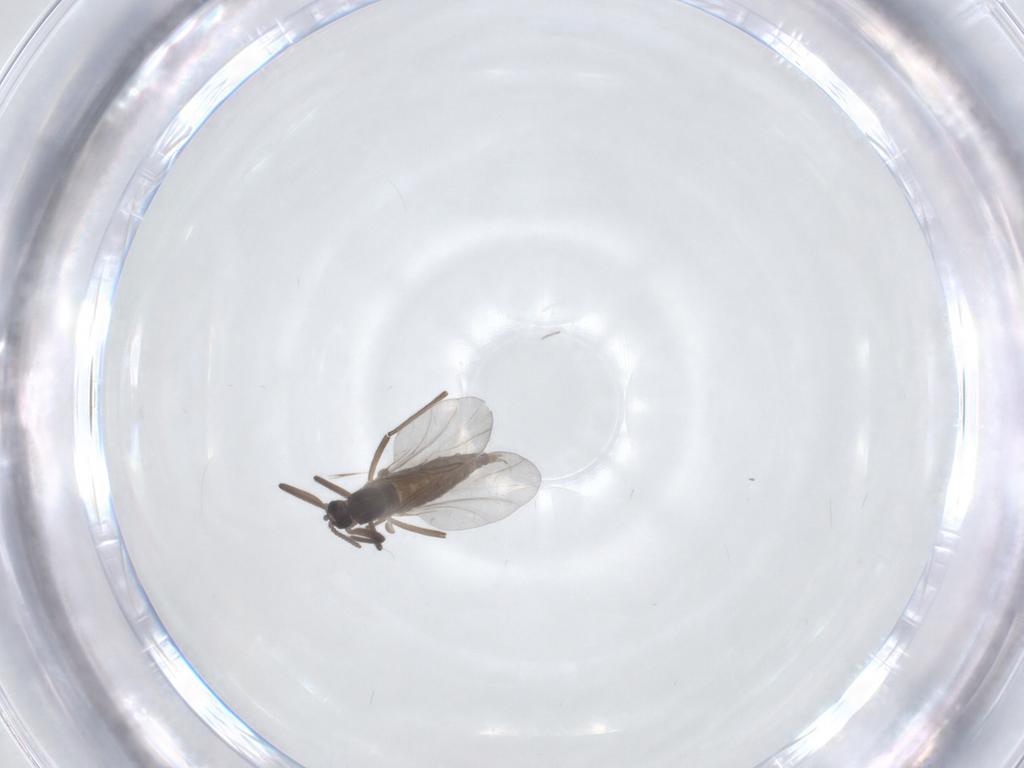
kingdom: Animalia
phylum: Arthropoda
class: Insecta
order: Diptera
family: Cecidomyiidae
